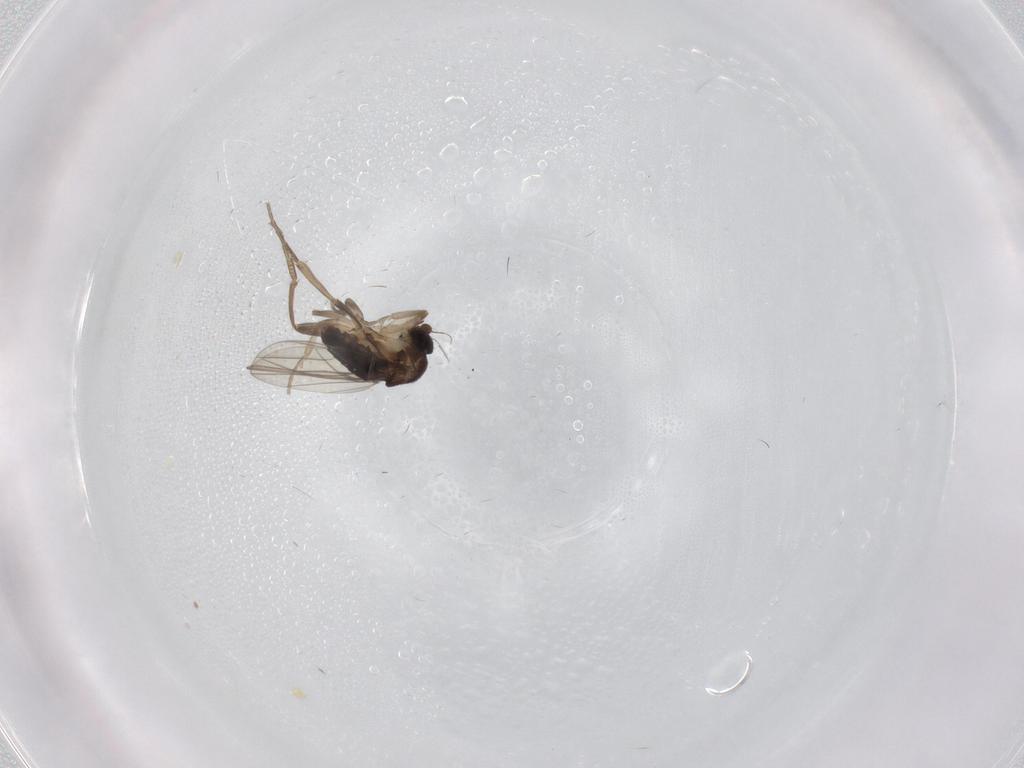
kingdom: Animalia
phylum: Arthropoda
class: Insecta
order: Diptera
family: Phoridae
